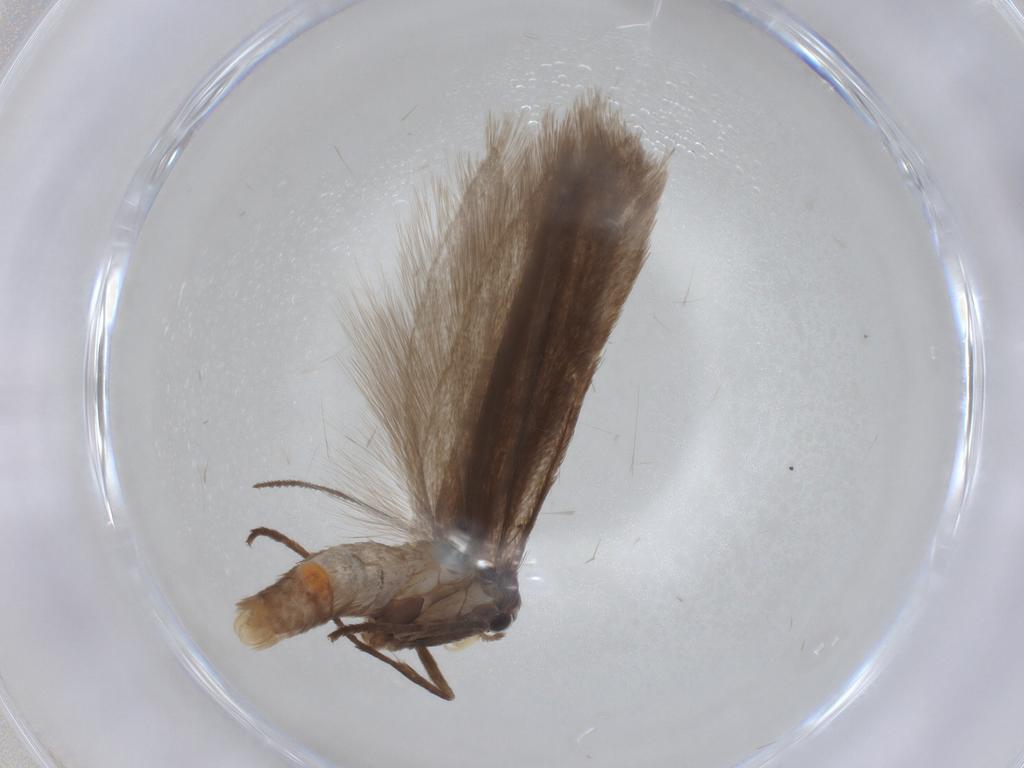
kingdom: Animalia
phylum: Arthropoda
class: Insecta
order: Lepidoptera
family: Limacodidae
